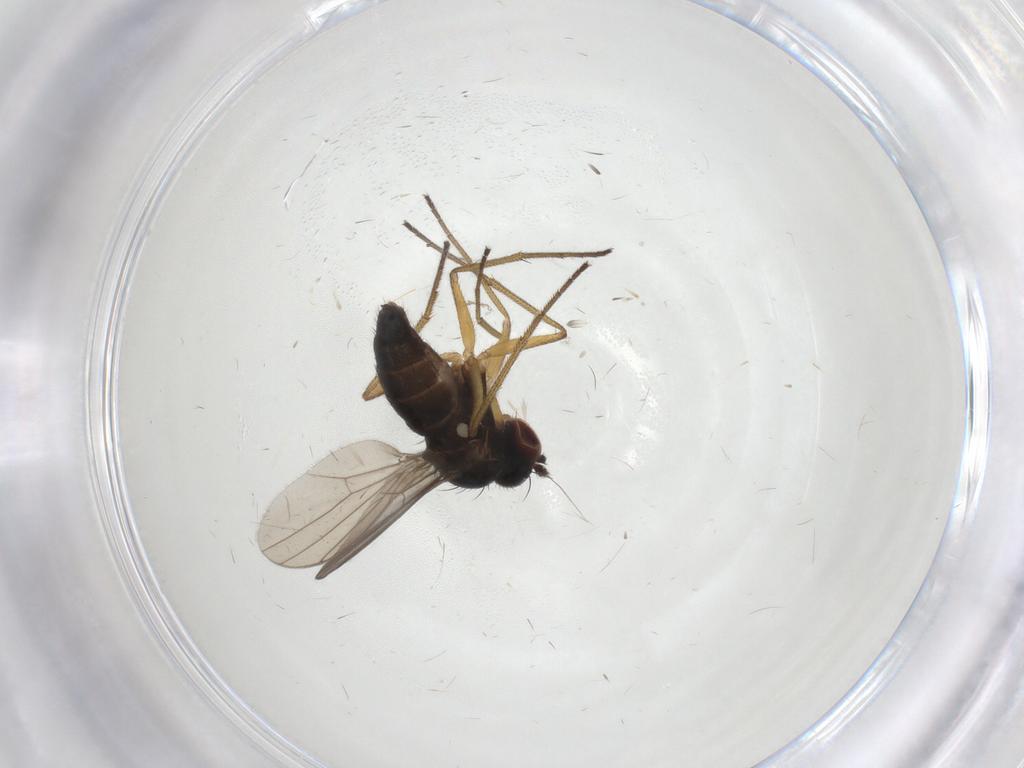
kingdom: Animalia
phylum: Arthropoda
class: Insecta
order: Diptera
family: Dolichopodidae
